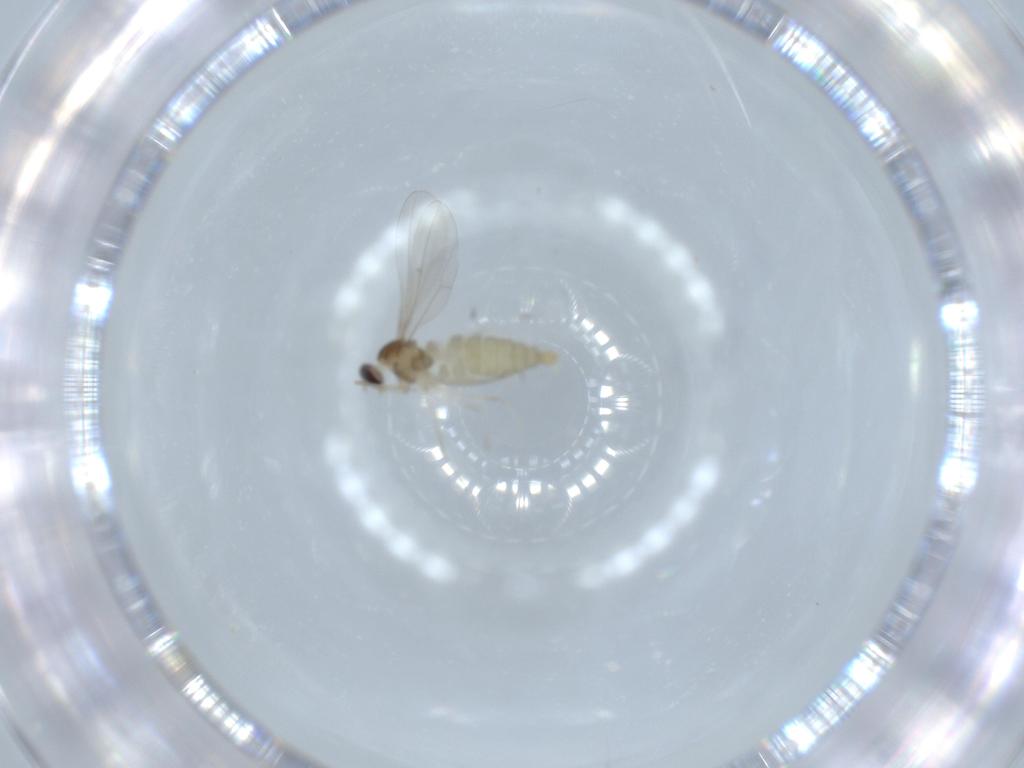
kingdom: Animalia
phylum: Arthropoda
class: Insecta
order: Diptera
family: Cecidomyiidae
